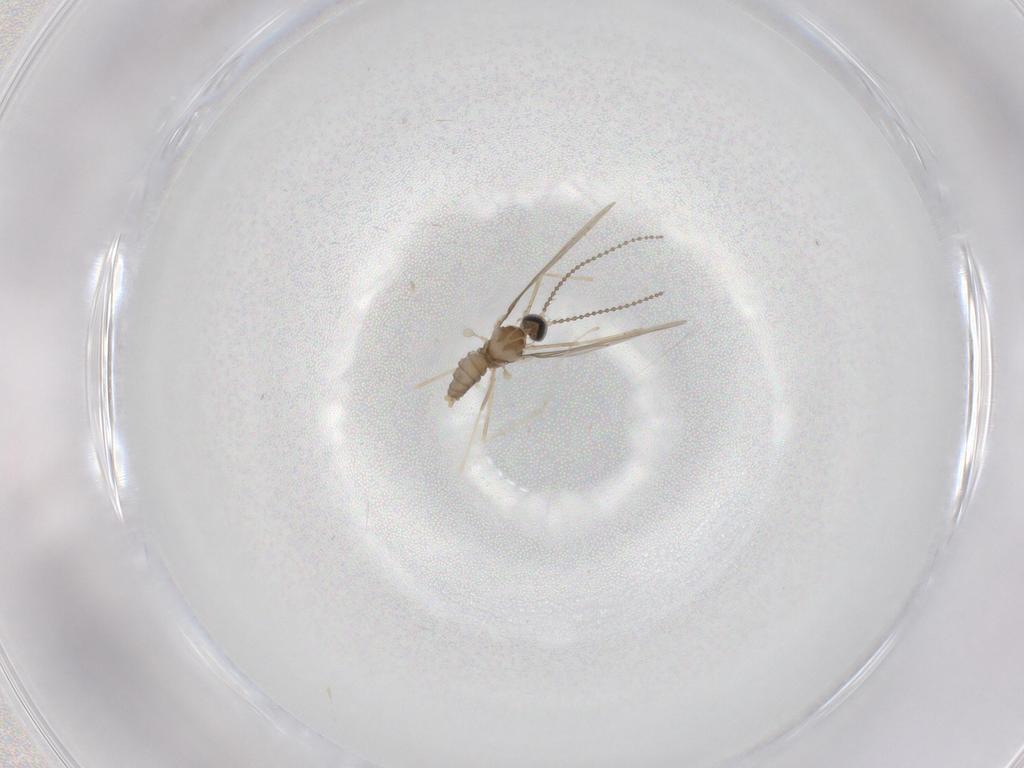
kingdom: Animalia
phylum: Arthropoda
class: Insecta
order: Diptera
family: Cecidomyiidae
